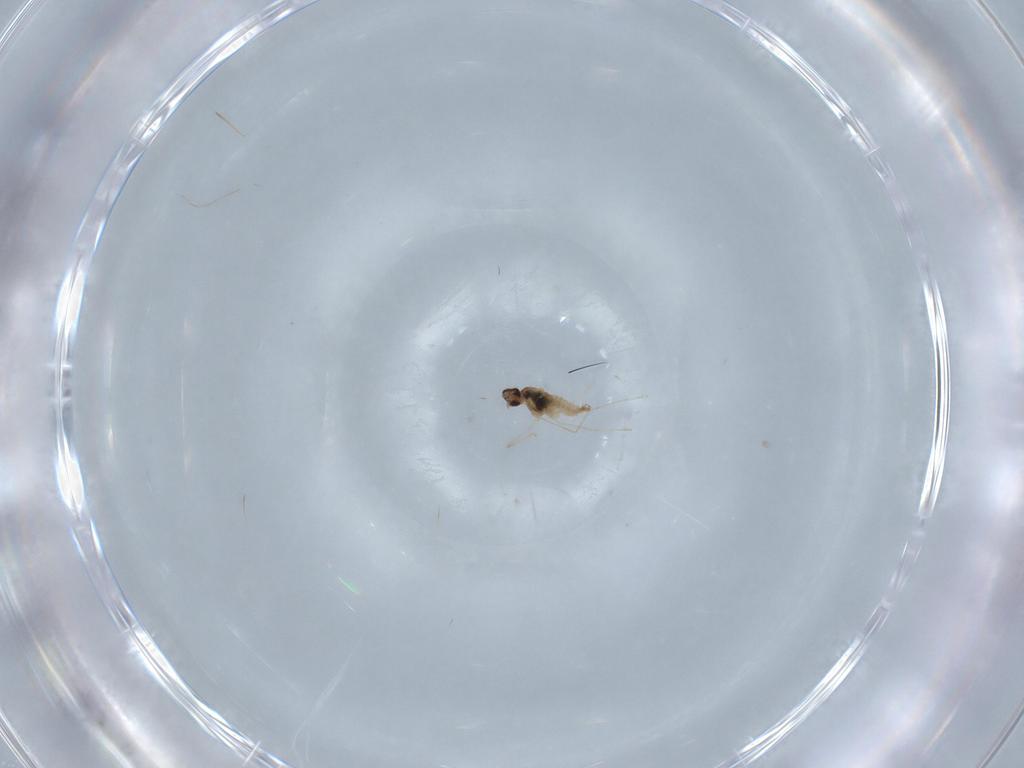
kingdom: Animalia
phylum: Arthropoda
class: Insecta
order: Diptera
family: Cecidomyiidae
